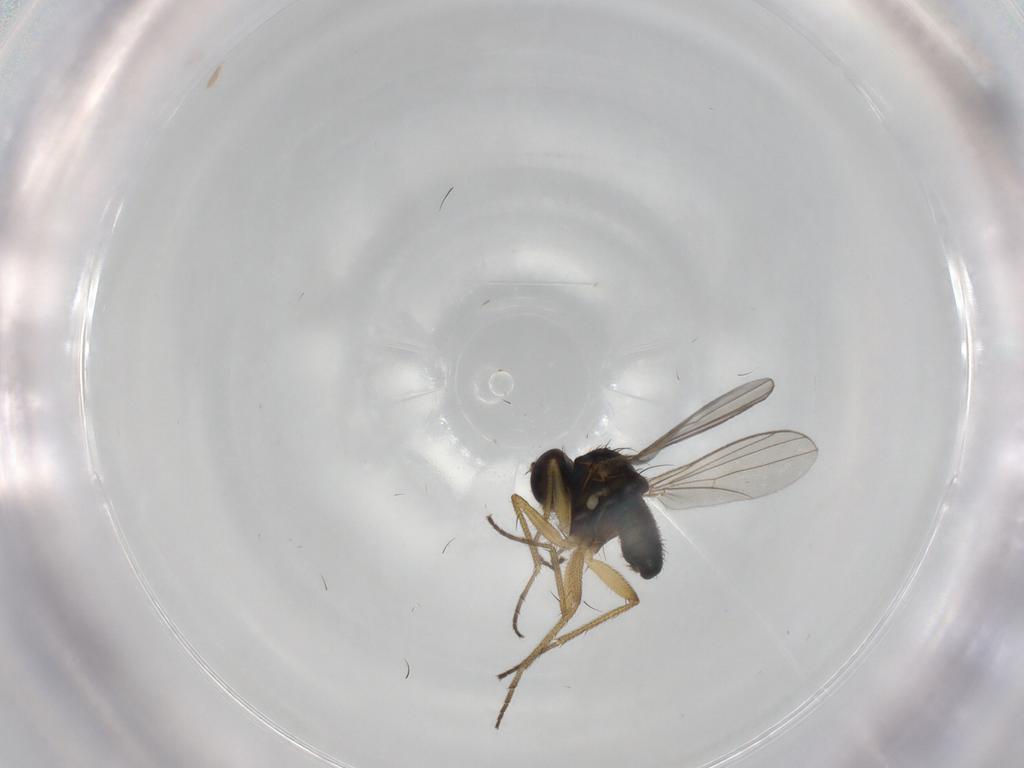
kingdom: Animalia
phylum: Arthropoda
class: Insecta
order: Diptera
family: Chironomidae
